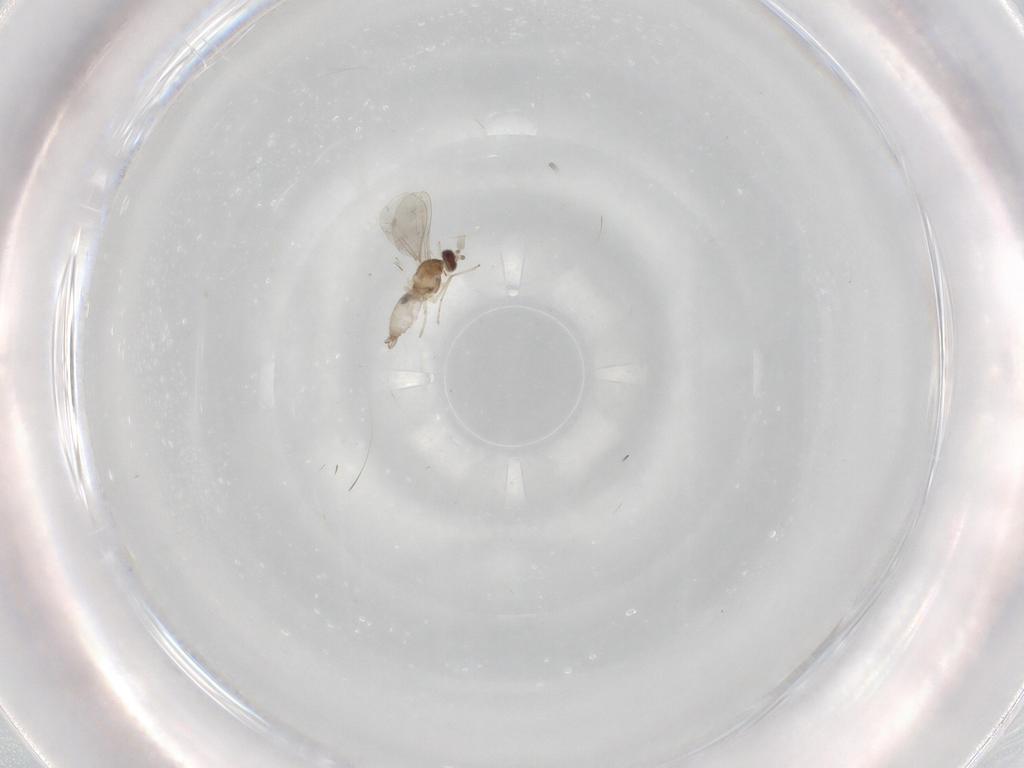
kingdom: Animalia
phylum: Arthropoda
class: Insecta
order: Diptera
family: Cecidomyiidae
